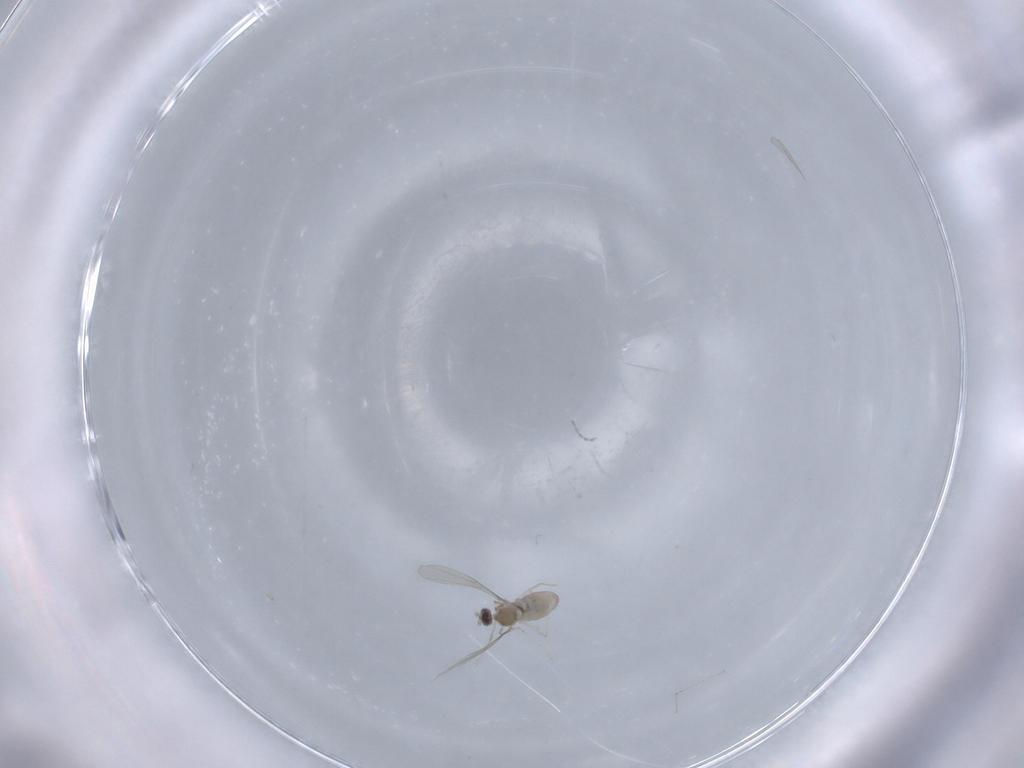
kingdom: Animalia
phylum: Arthropoda
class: Insecta
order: Diptera
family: Cecidomyiidae
